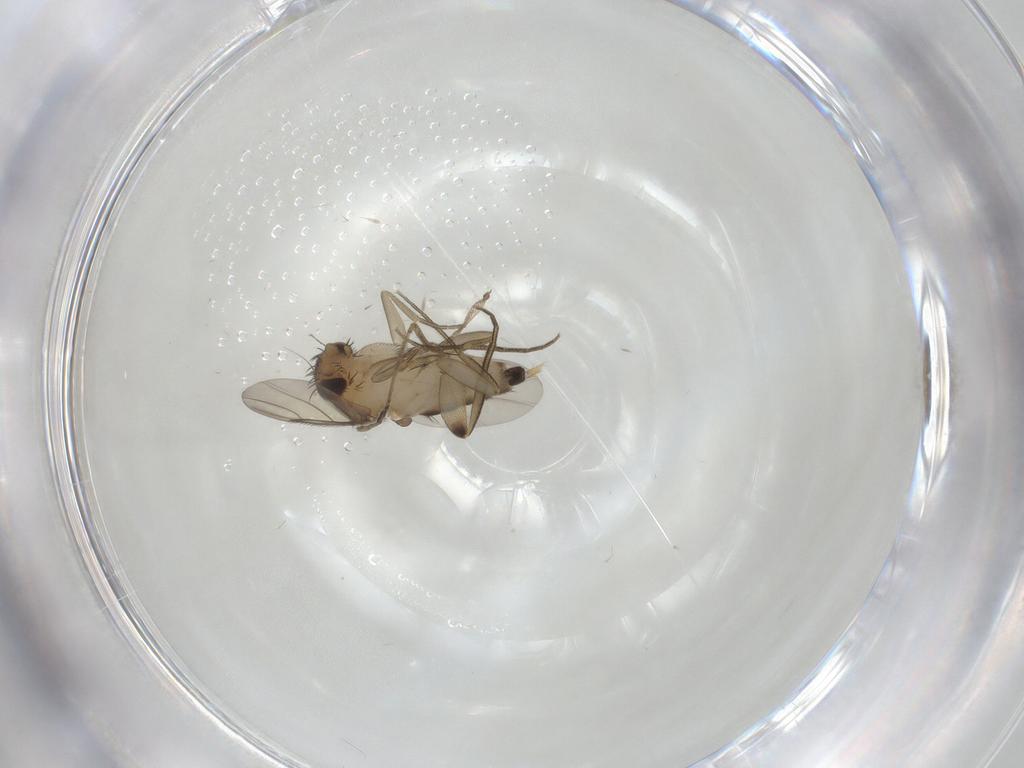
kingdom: Animalia
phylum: Arthropoda
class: Insecta
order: Diptera
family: Cecidomyiidae
